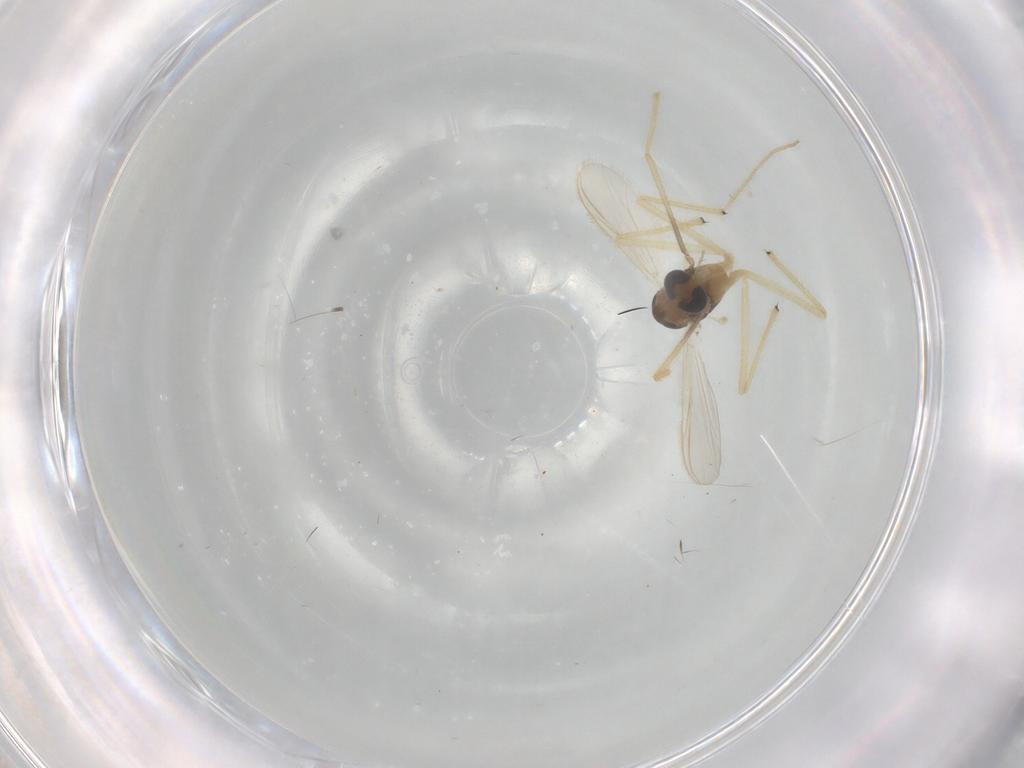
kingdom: Animalia
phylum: Arthropoda
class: Insecta
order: Diptera
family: Chironomidae
